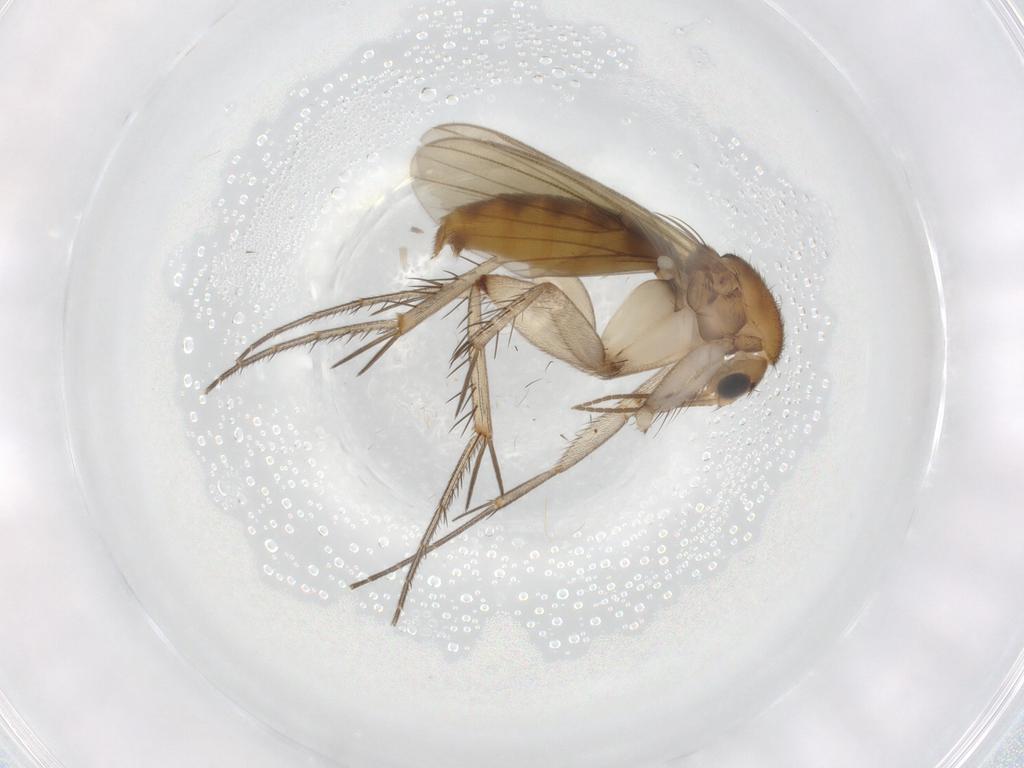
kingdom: Animalia
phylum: Arthropoda
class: Insecta
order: Diptera
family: Mycetophilidae
